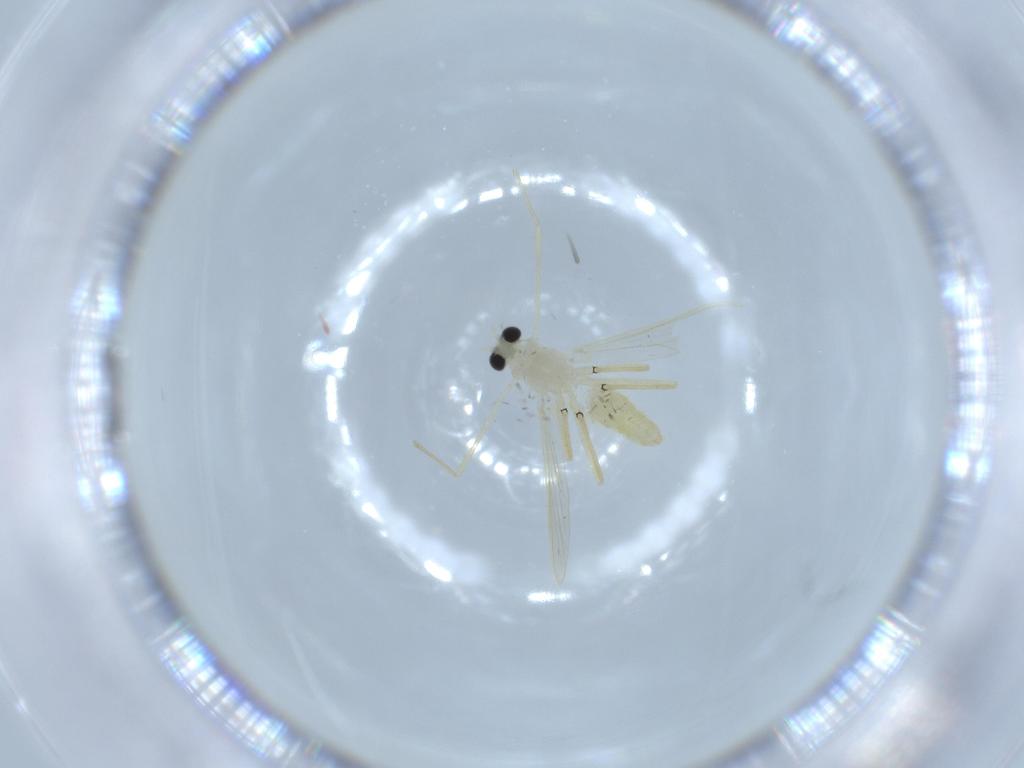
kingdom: Animalia
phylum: Arthropoda
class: Insecta
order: Diptera
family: Chironomidae
